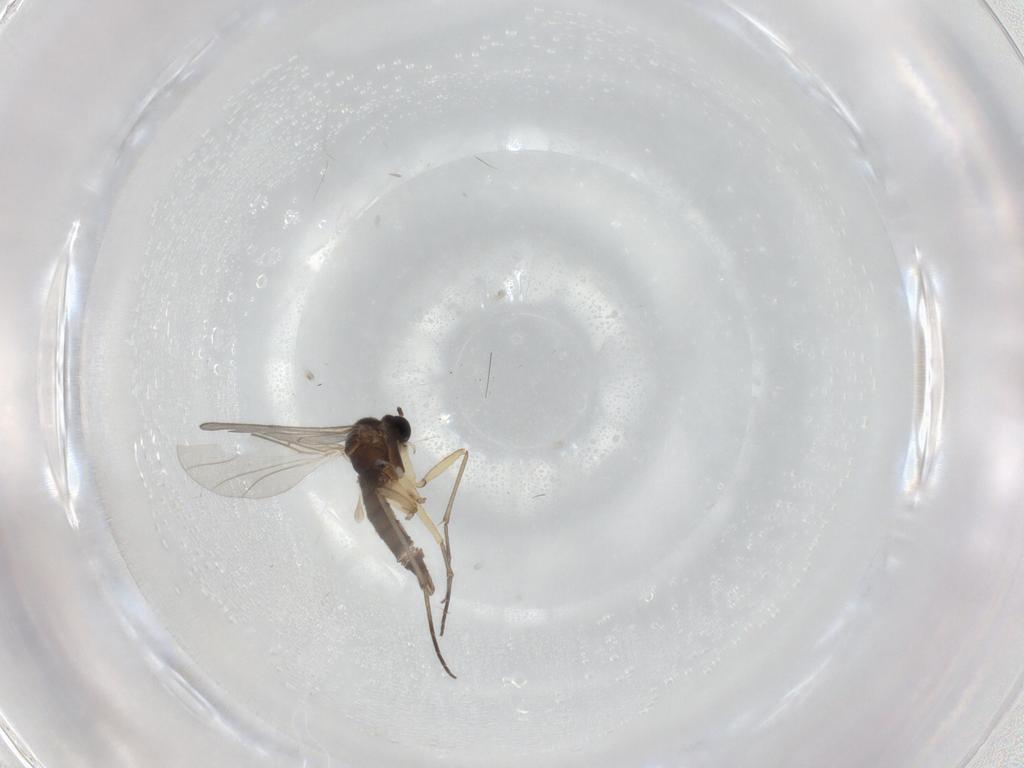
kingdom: Animalia
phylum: Arthropoda
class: Insecta
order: Diptera
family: Sciaridae
